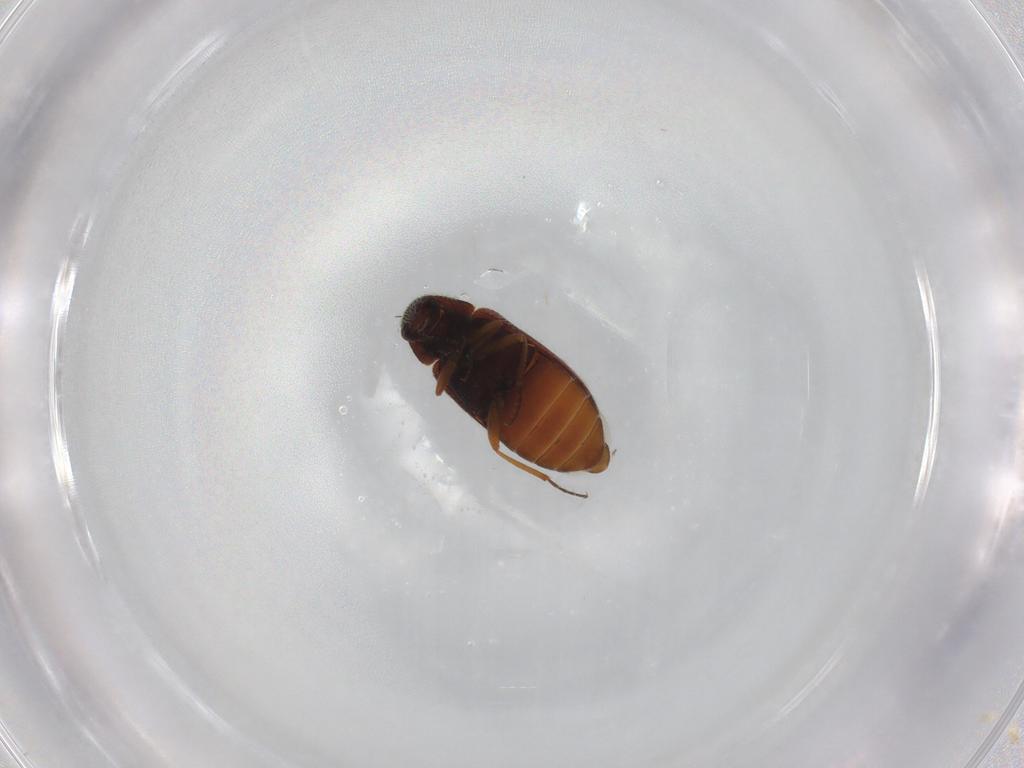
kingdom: Animalia
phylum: Arthropoda
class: Insecta
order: Coleoptera
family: Rhadalidae
